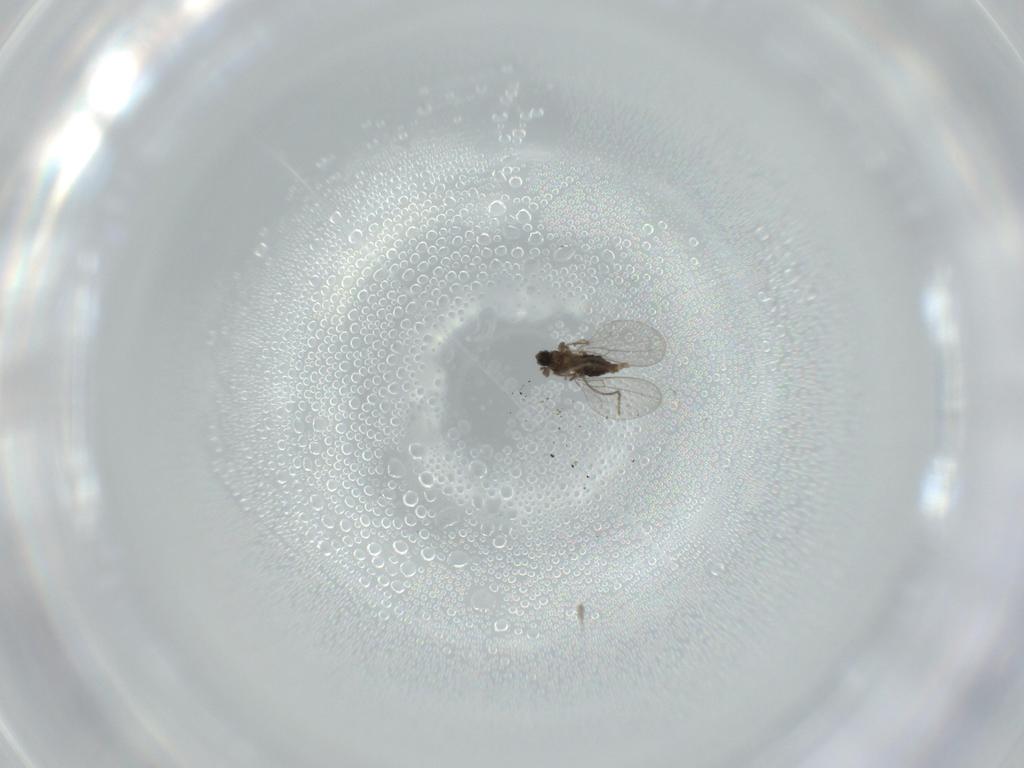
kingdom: Animalia
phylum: Arthropoda
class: Insecta
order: Diptera
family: Cecidomyiidae
